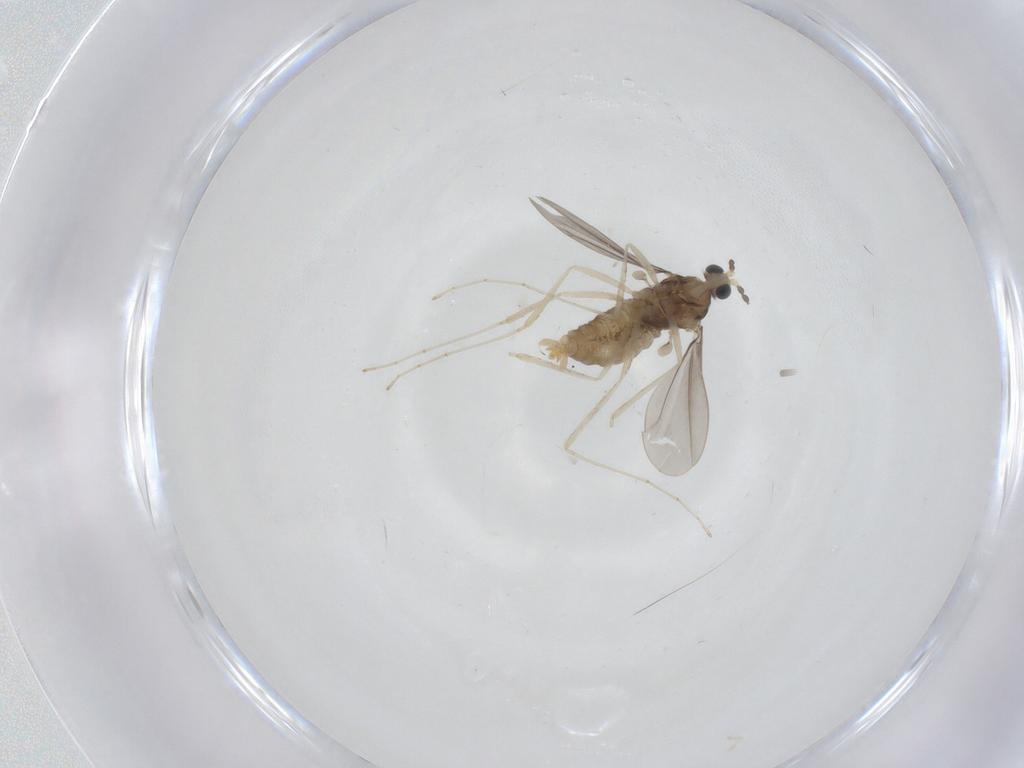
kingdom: Animalia
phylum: Arthropoda
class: Insecta
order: Diptera
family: Cecidomyiidae
